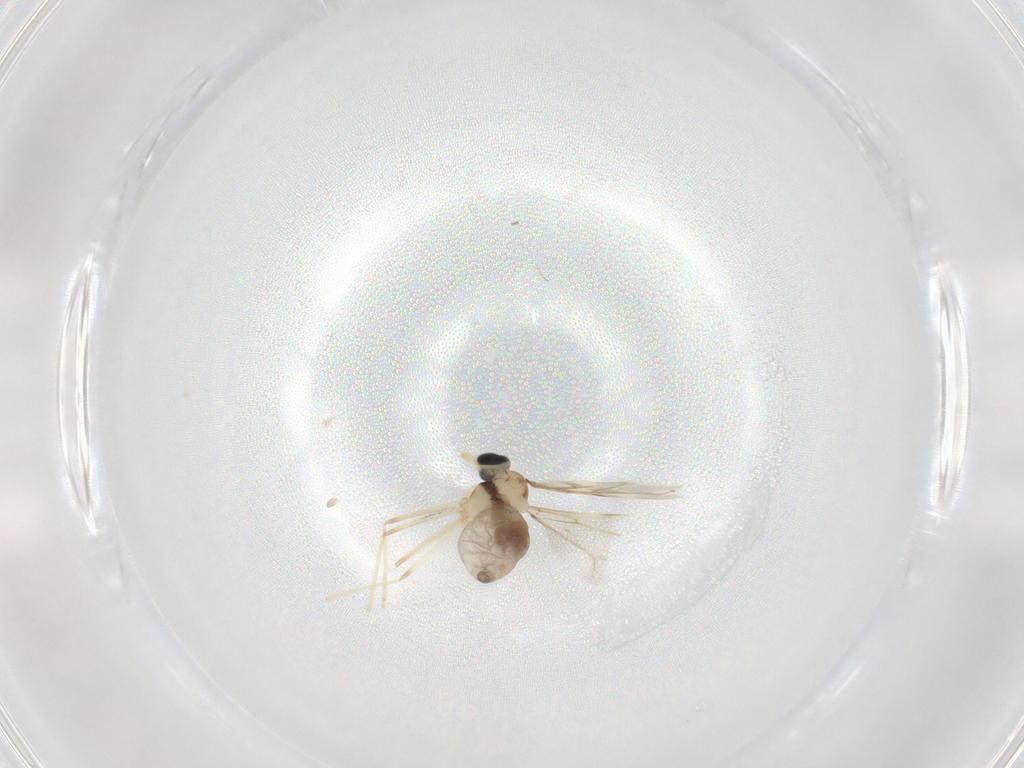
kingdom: Animalia
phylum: Arthropoda
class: Insecta
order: Diptera
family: Cecidomyiidae
